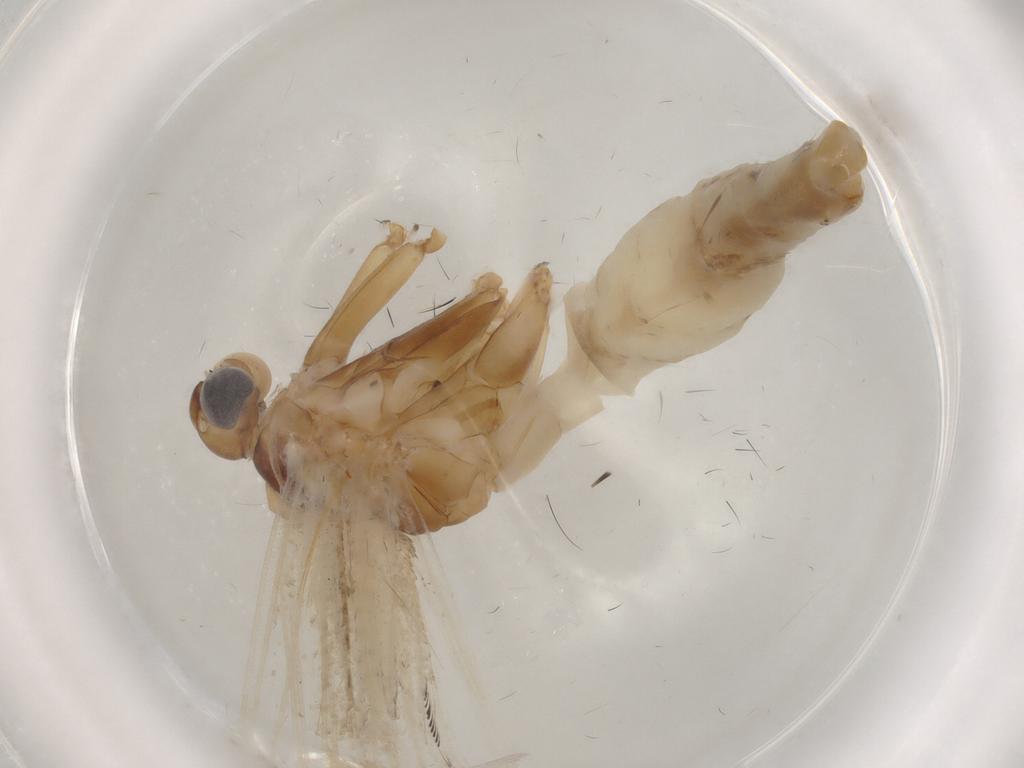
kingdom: Animalia
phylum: Arthropoda
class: Insecta
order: Lepidoptera
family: Pterophoridae
